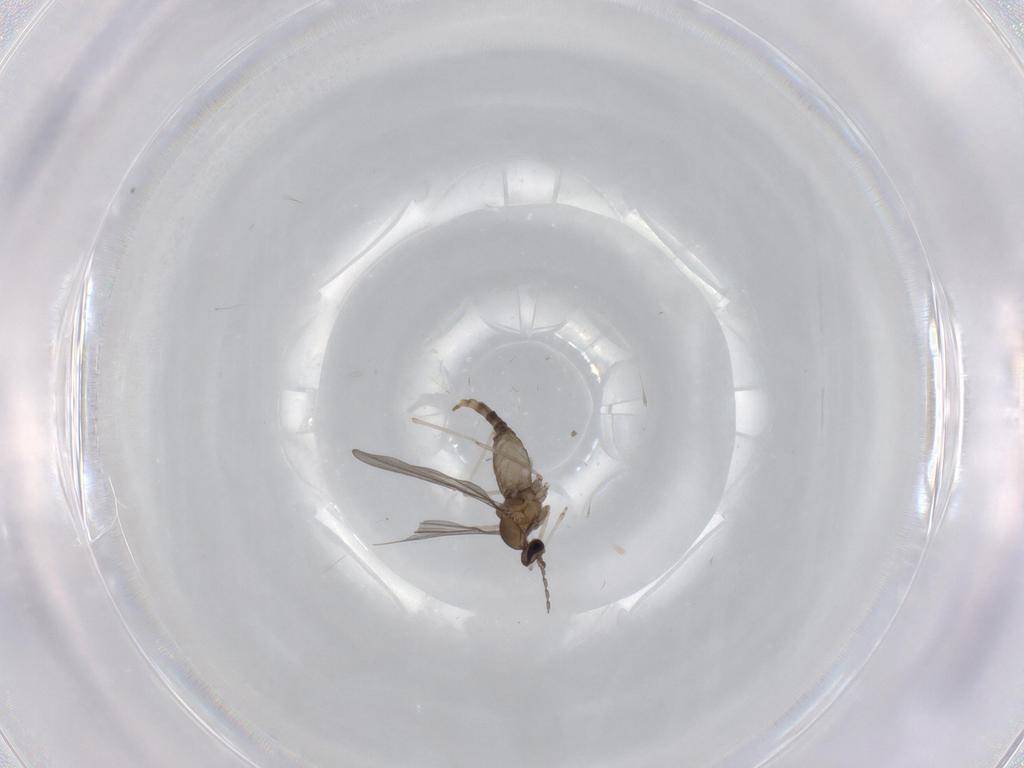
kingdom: Animalia
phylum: Arthropoda
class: Insecta
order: Diptera
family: Cecidomyiidae
